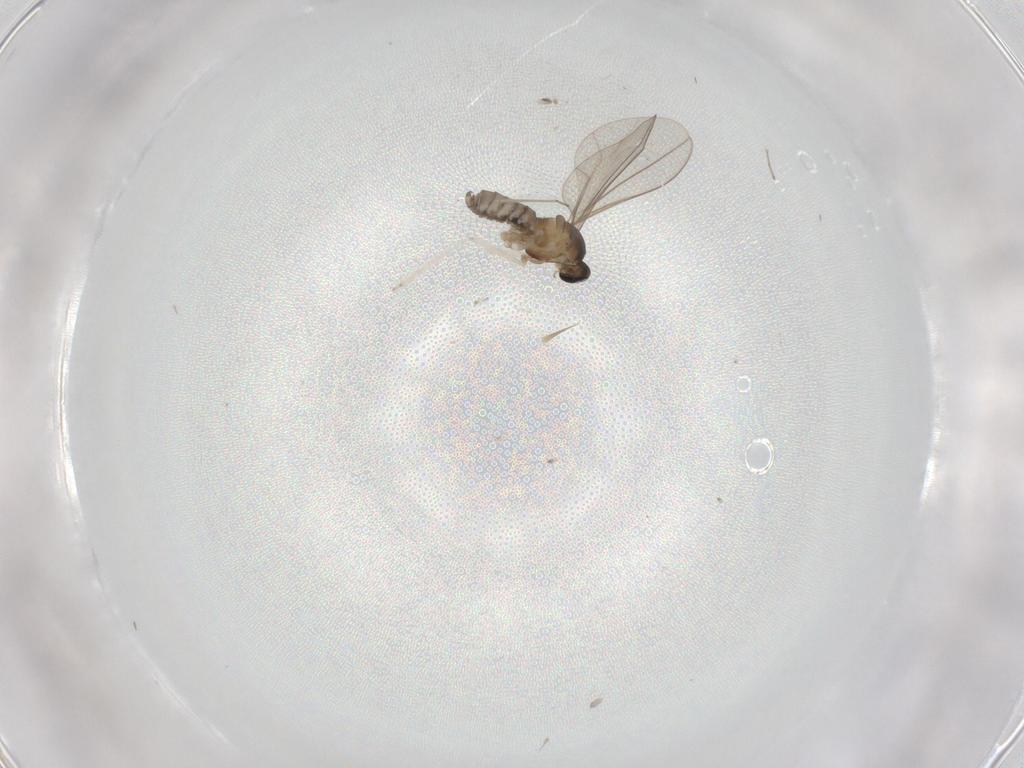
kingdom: Animalia
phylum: Arthropoda
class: Insecta
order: Diptera
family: Cecidomyiidae
